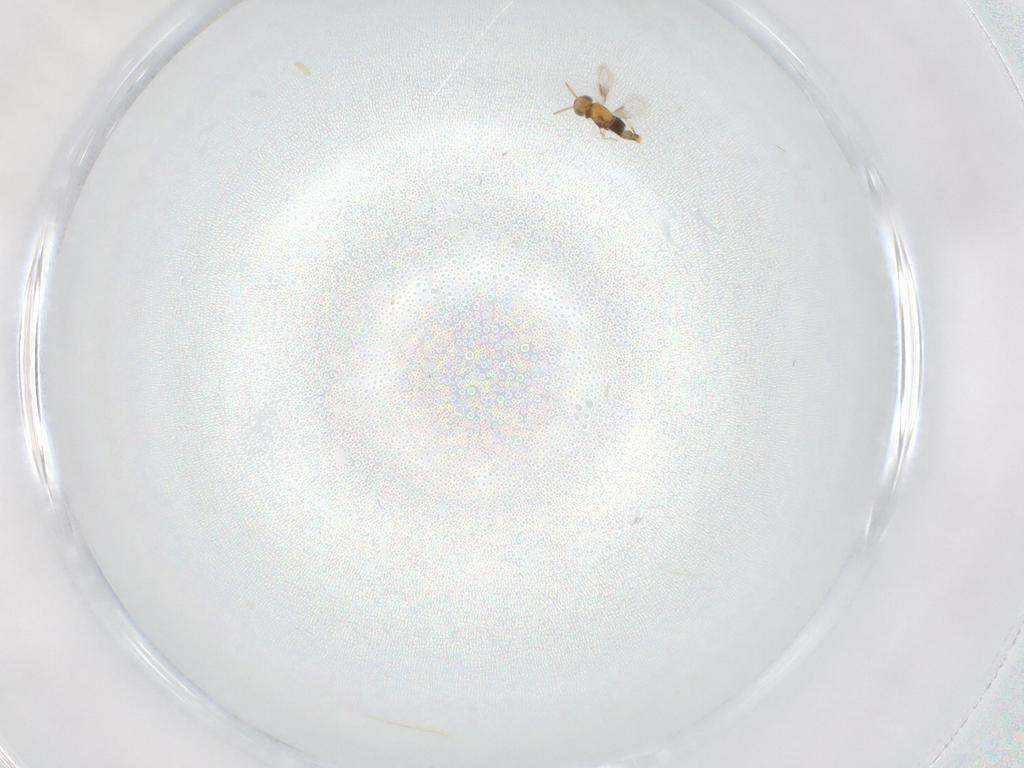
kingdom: Animalia
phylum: Arthropoda
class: Insecta
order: Hymenoptera
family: Aphelinidae
